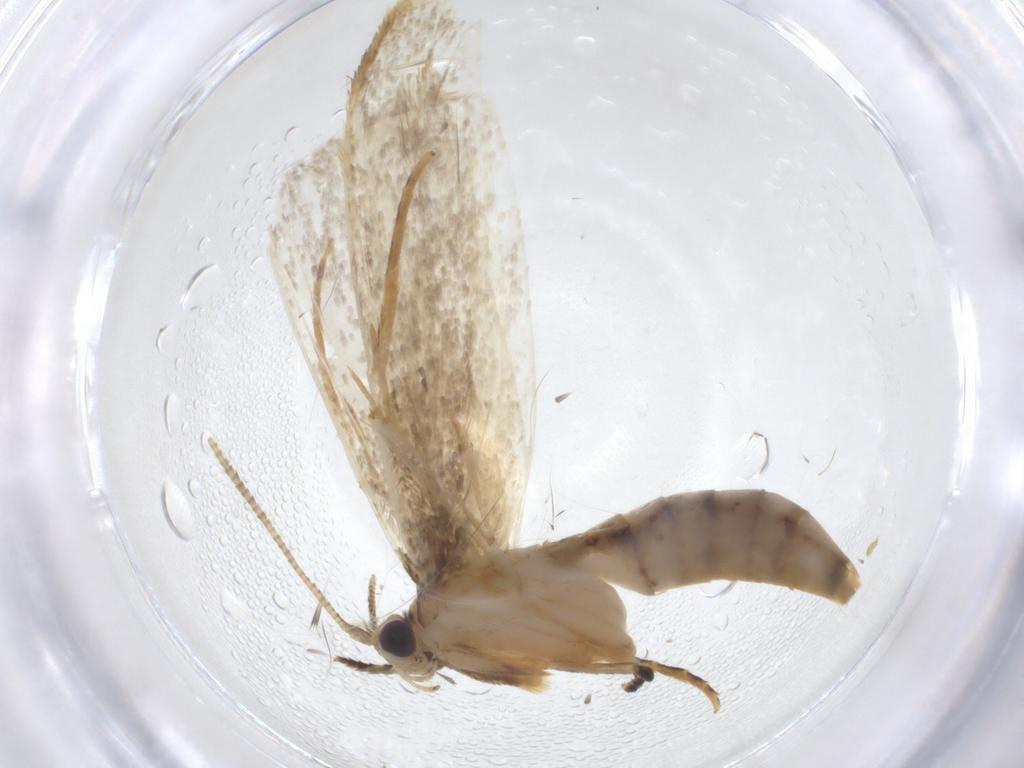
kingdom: Animalia
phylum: Arthropoda
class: Insecta
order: Lepidoptera
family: Tineidae
